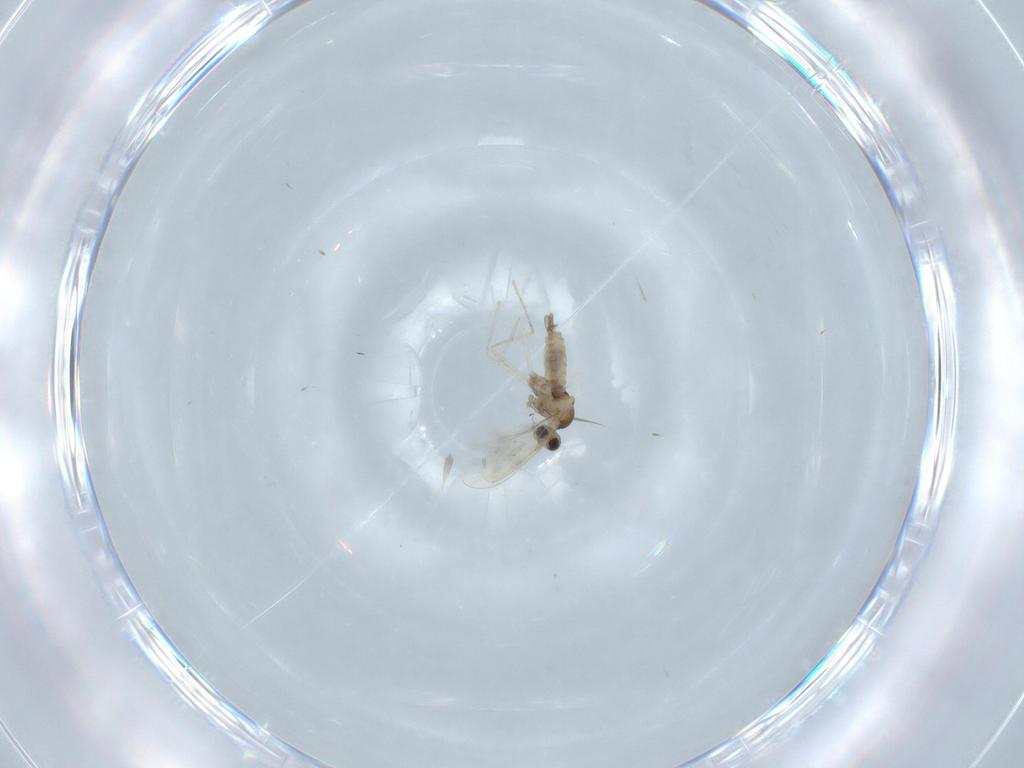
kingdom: Animalia
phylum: Arthropoda
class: Insecta
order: Diptera
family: Cecidomyiidae
